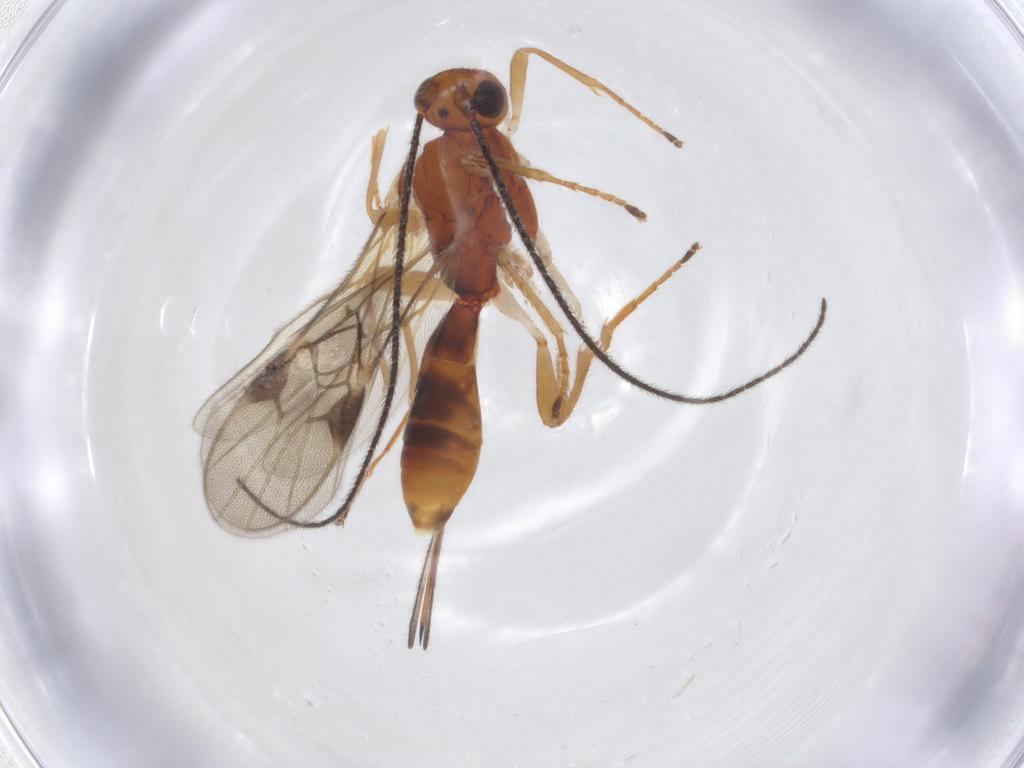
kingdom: Animalia
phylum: Arthropoda
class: Insecta
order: Hymenoptera
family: Braconidae
